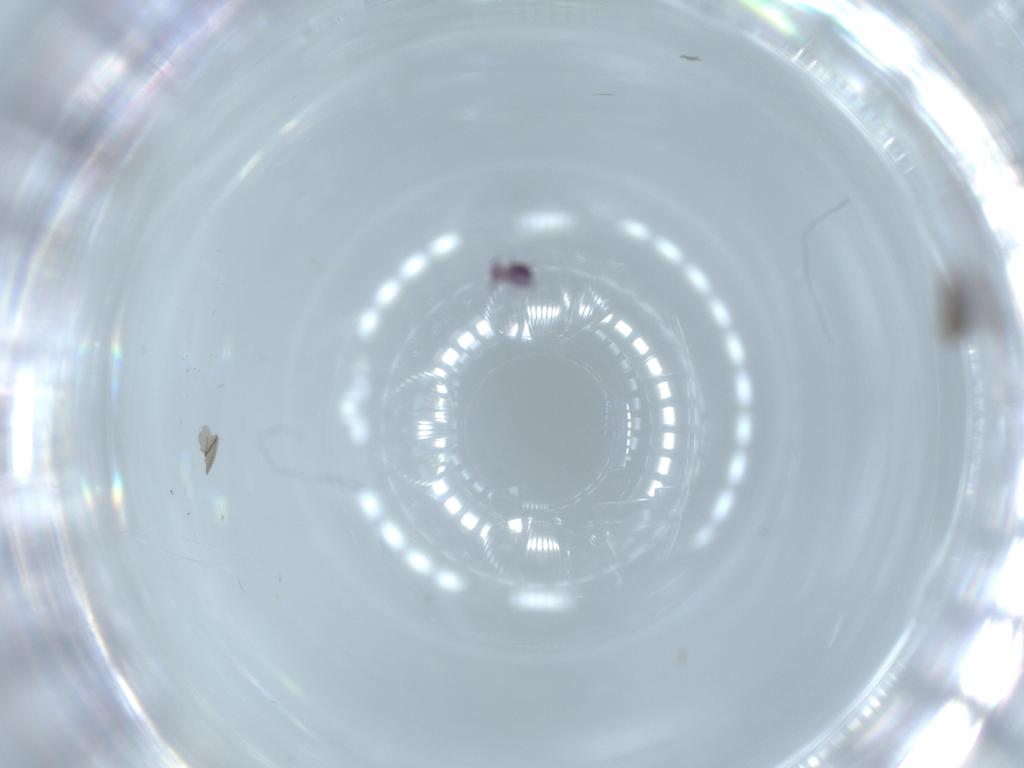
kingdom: Animalia
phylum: Arthropoda
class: Insecta
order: Diptera
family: Cecidomyiidae
